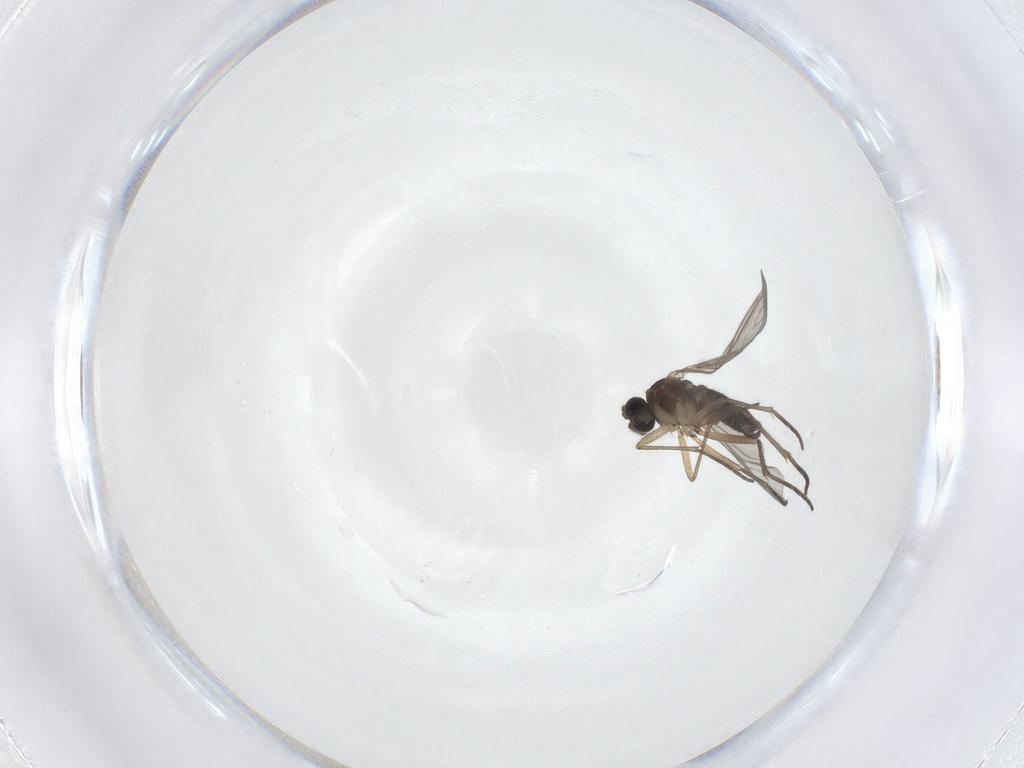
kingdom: Animalia
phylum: Arthropoda
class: Insecta
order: Diptera
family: Sciaridae
